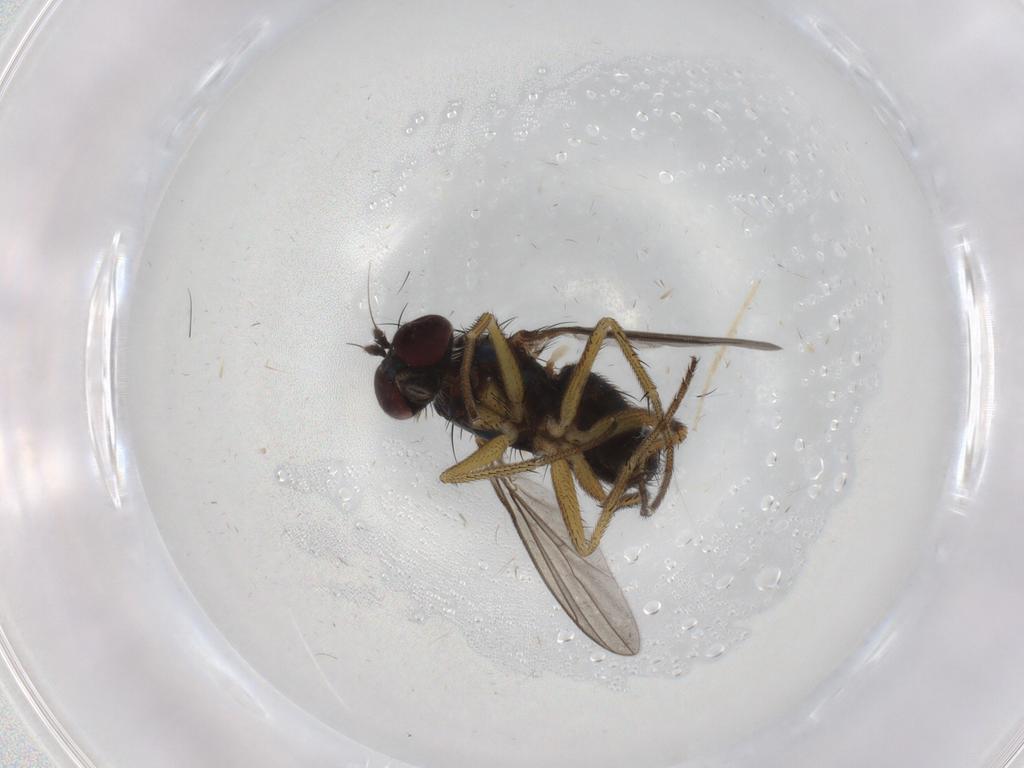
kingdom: Animalia
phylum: Arthropoda
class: Insecta
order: Diptera
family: Dolichopodidae
